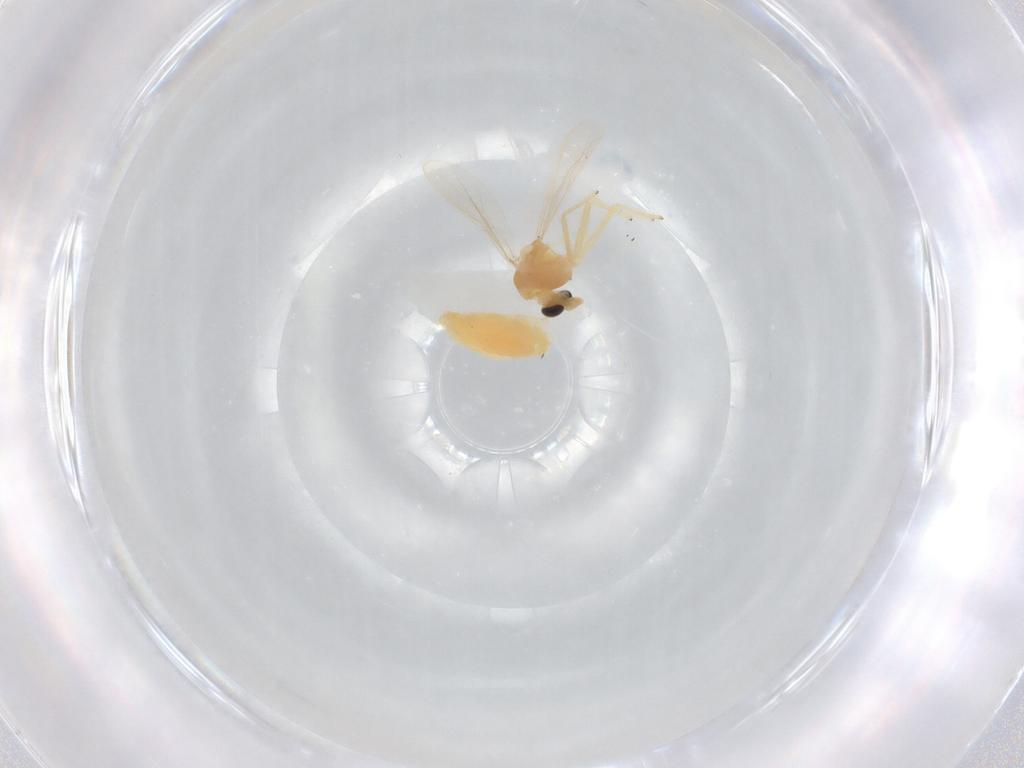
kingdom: Animalia
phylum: Arthropoda
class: Insecta
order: Diptera
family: Chironomidae
